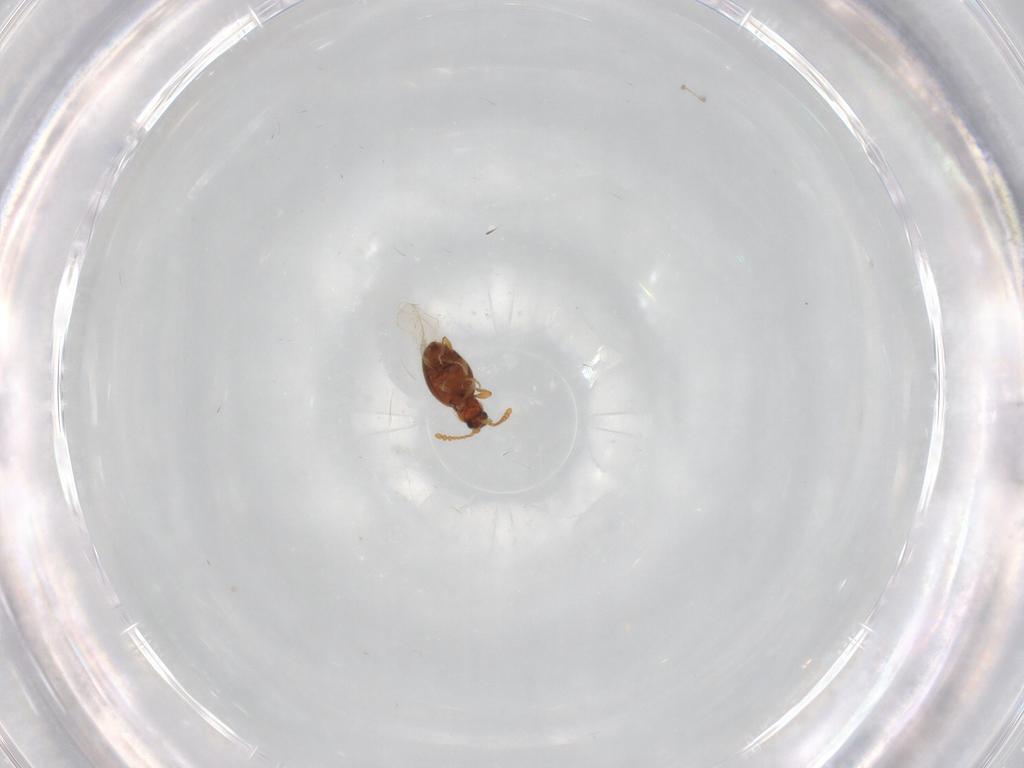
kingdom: Animalia
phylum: Arthropoda
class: Insecta
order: Coleoptera
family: Staphylinidae
